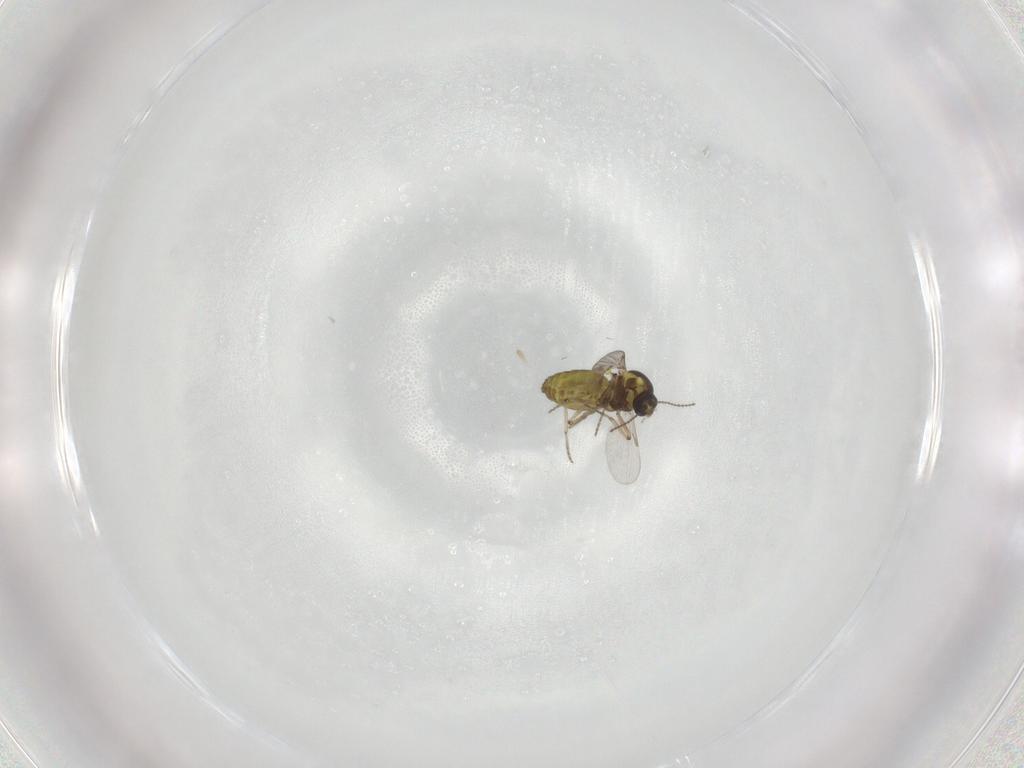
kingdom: Animalia
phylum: Arthropoda
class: Insecta
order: Diptera
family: Ceratopogonidae
